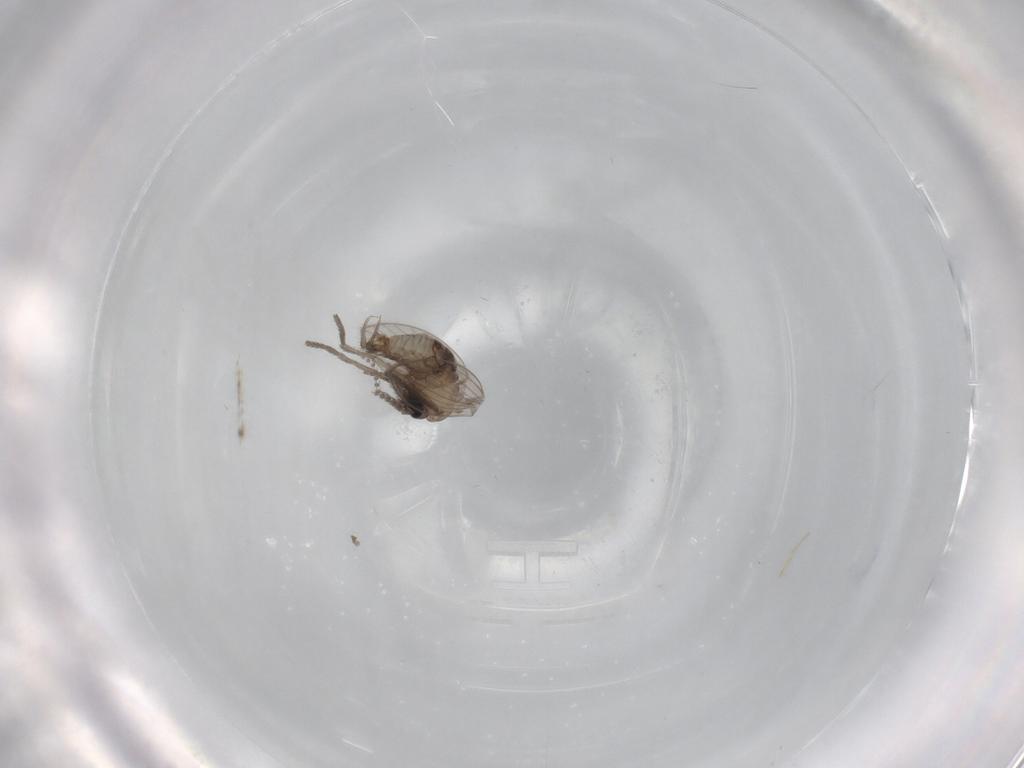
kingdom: Animalia
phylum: Arthropoda
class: Insecta
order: Diptera
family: Psychodidae
